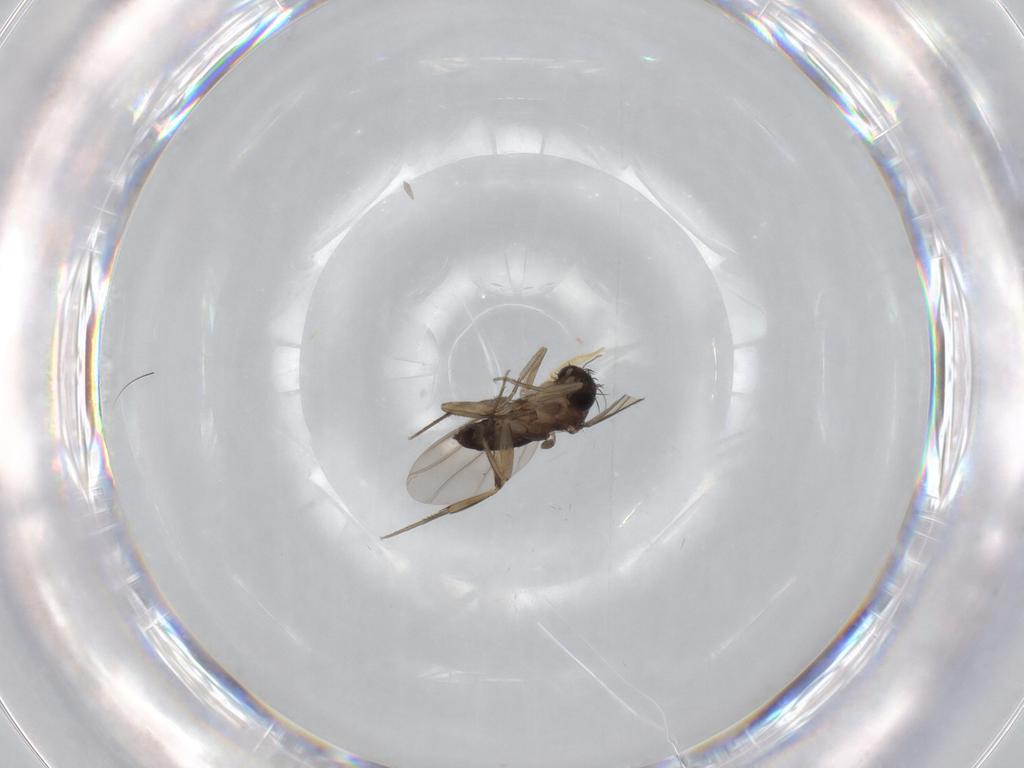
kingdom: Animalia
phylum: Arthropoda
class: Insecta
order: Diptera
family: Phoridae
